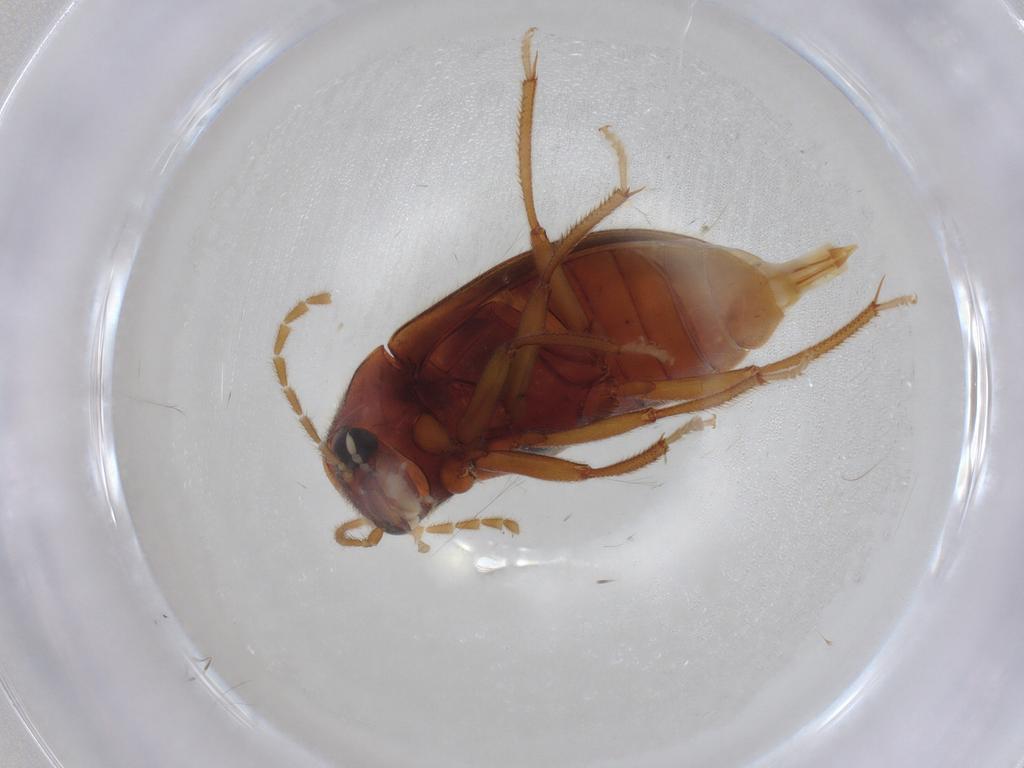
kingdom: Animalia
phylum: Arthropoda
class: Insecta
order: Coleoptera
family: Ptilodactylidae
